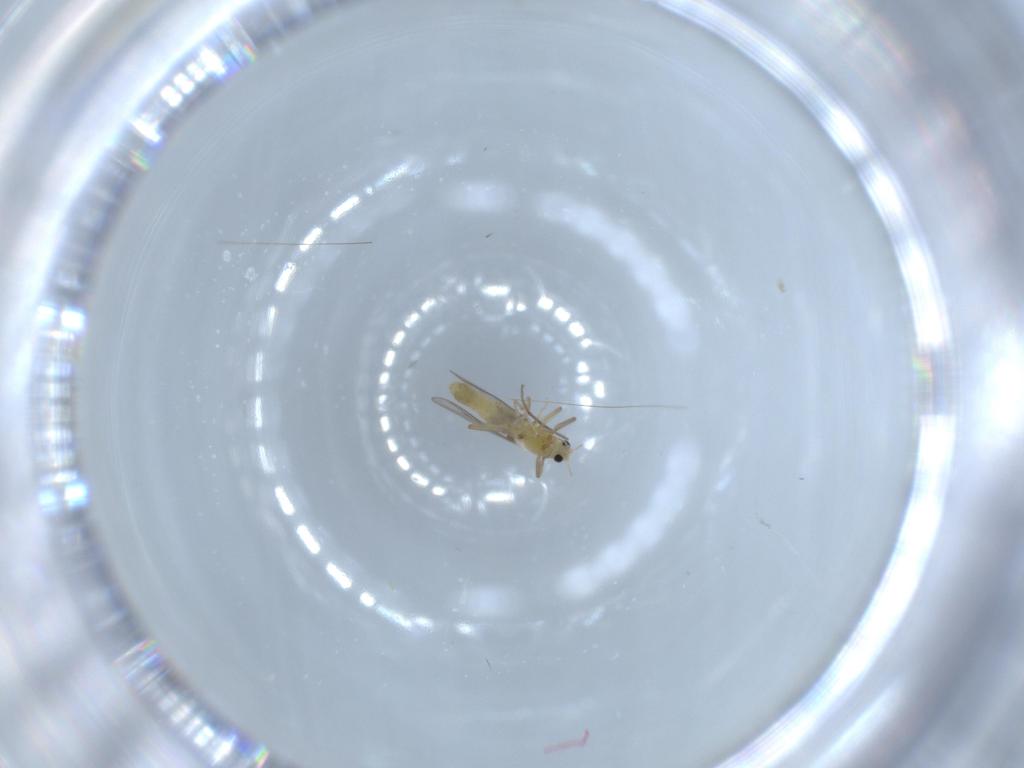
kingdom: Animalia
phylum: Arthropoda
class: Insecta
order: Diptera
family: Chironomidae
